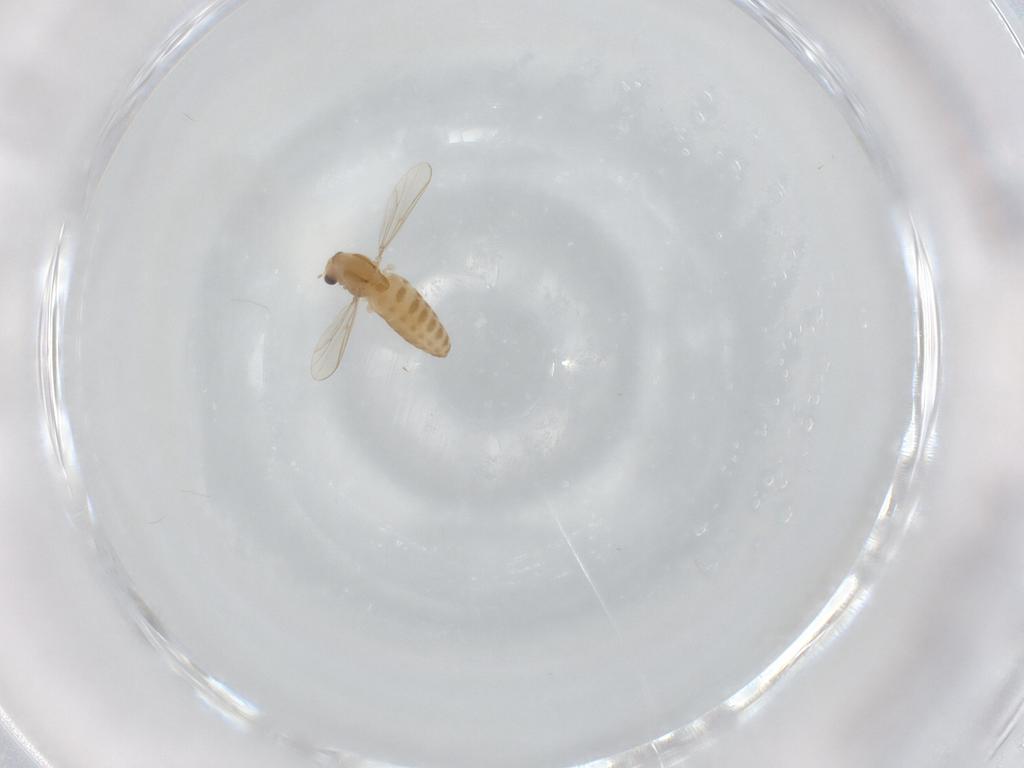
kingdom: Animalia
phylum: Arthropoda
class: Insecta
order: Diptera
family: Chironomidae
